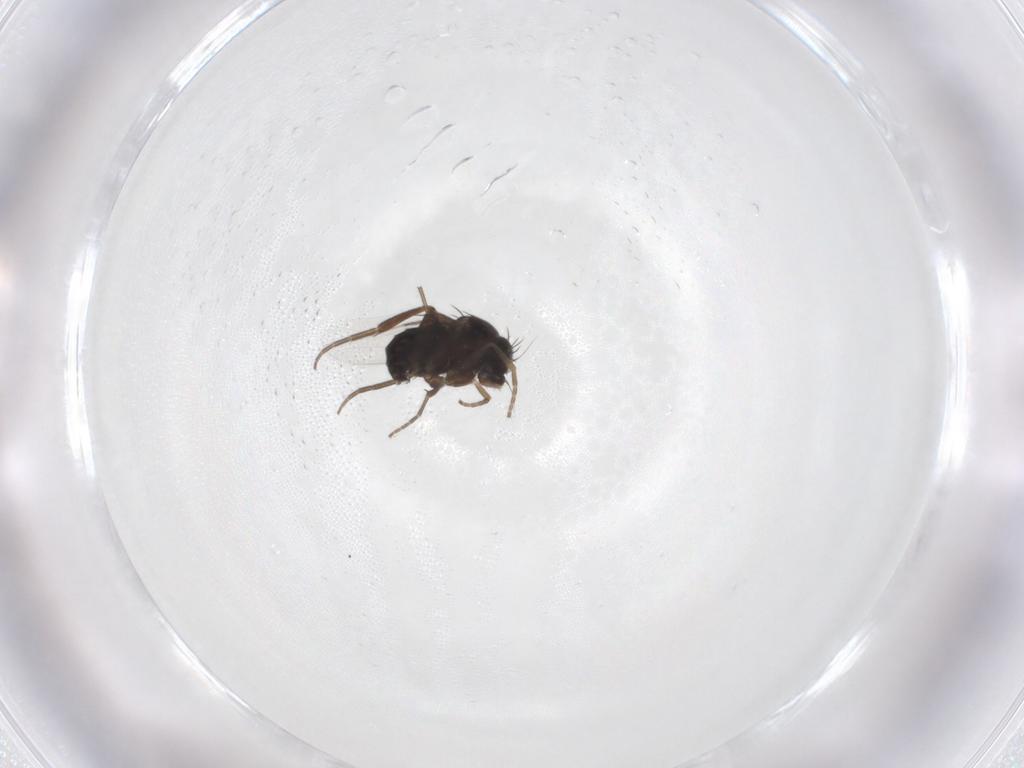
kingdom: Animalia
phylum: Arthropoda
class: Insecta
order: Diptera
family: Phoridae
